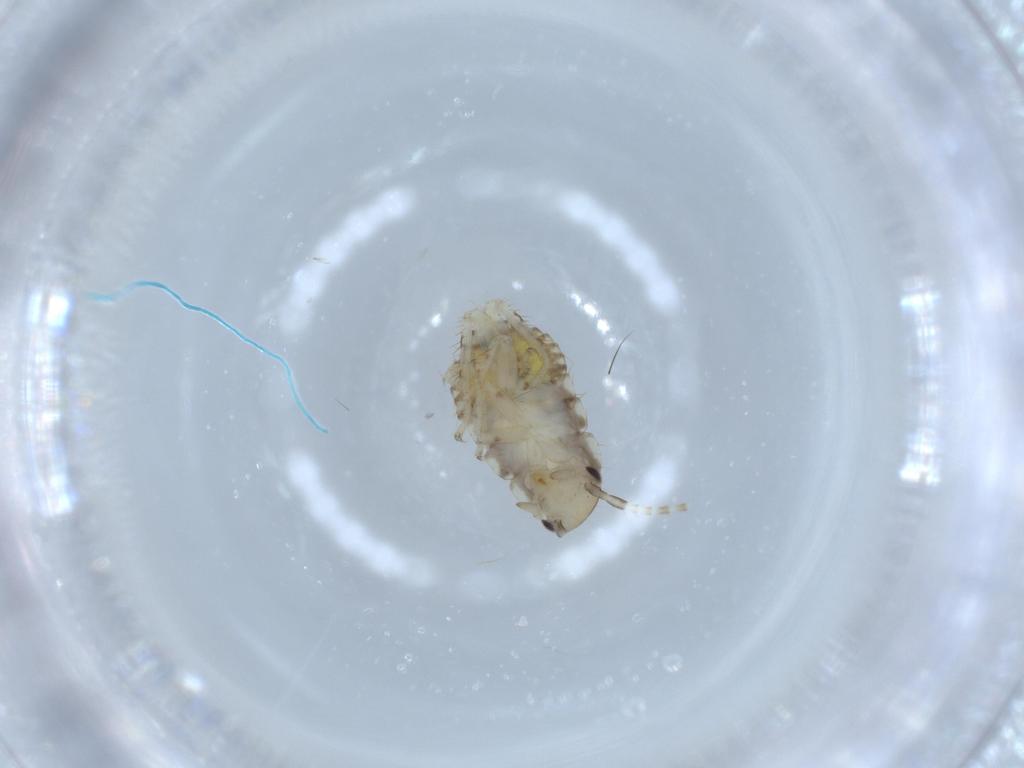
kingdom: Animalia
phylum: Arthropoda
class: Insecta
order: Blattodea
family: Ectobiidae
